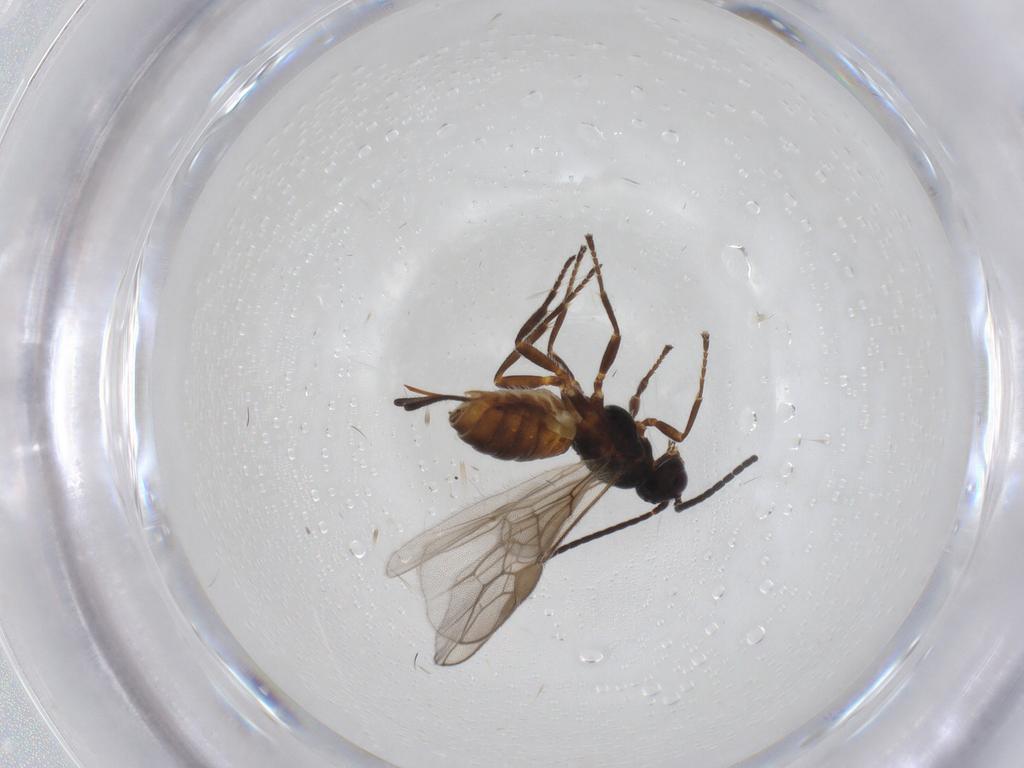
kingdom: Animalia
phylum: Arthropoda
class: Insecta
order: Hymenoptera
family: Braconidae
